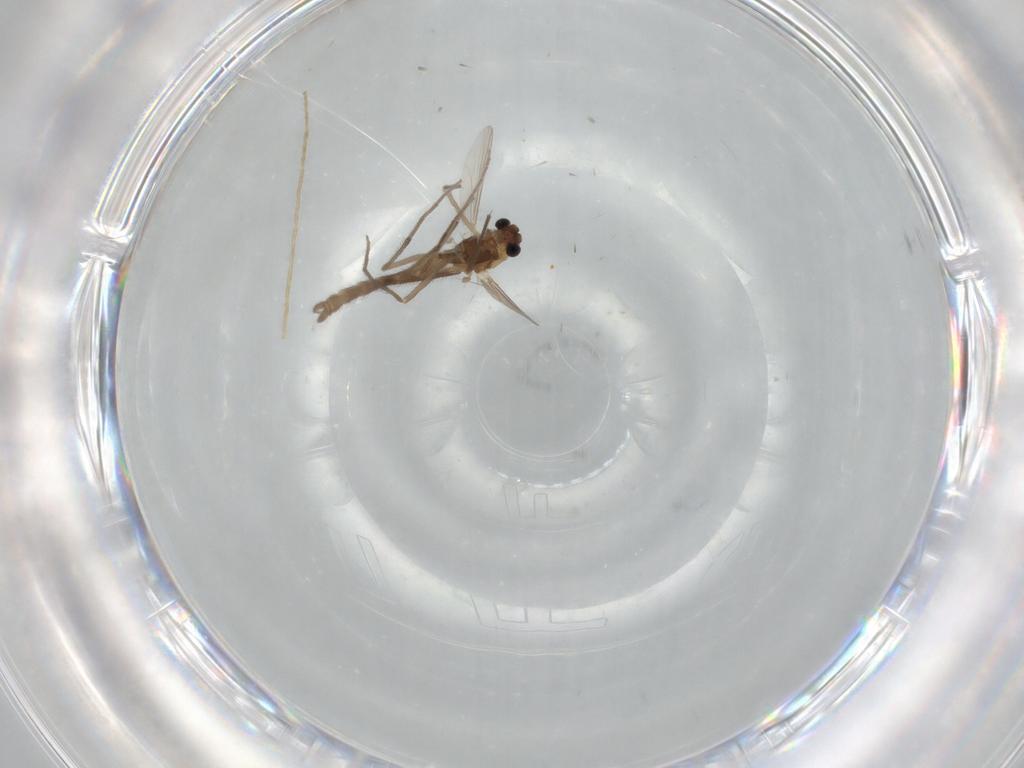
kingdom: Animalia
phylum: Arthropoda
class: Insecta
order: Diptera
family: Chironomidae
